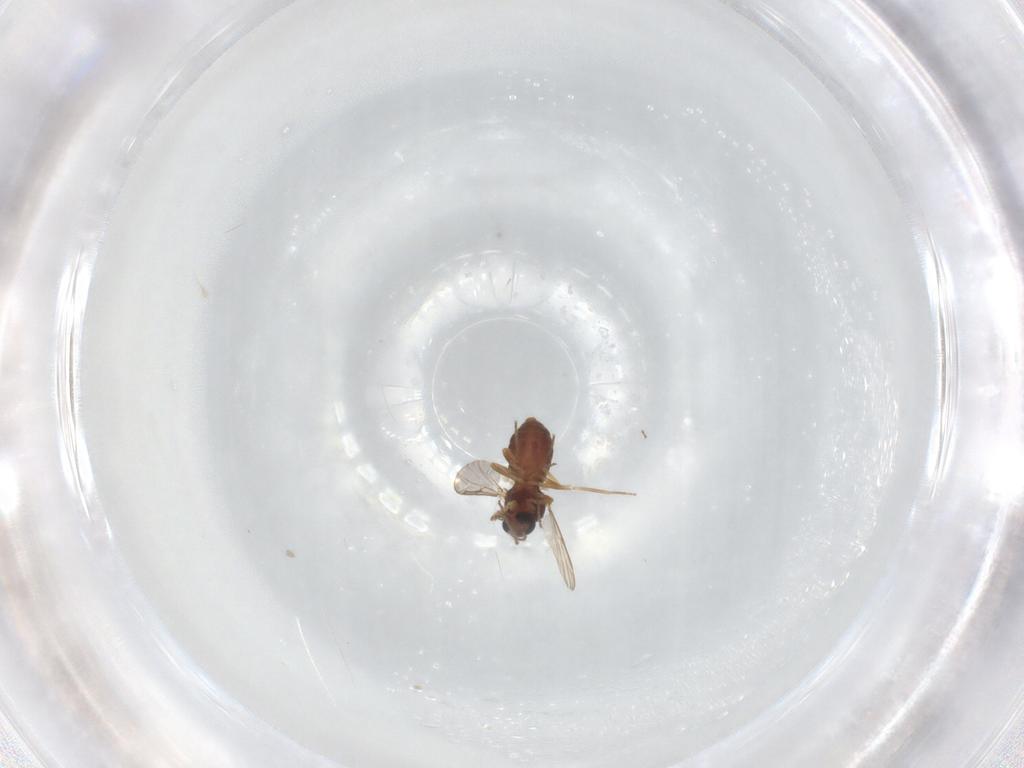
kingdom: Animalia
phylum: Arthropoda
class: Insecta
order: Diptera
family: Ceratopogonidae
